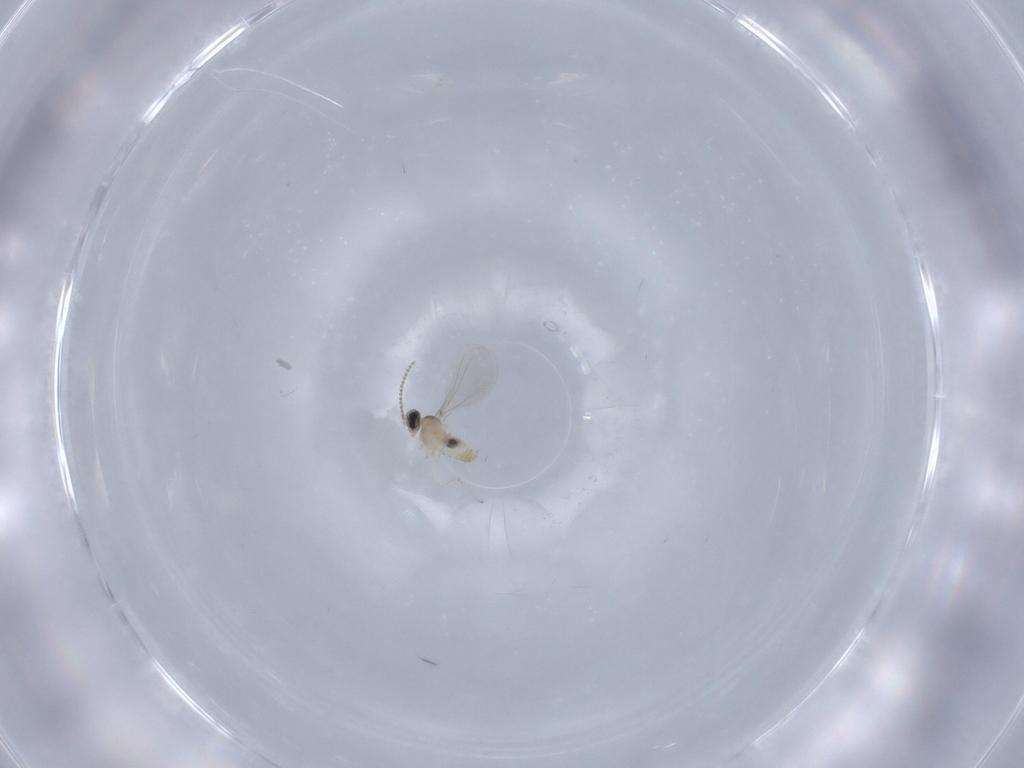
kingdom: Animalia
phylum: Arthropoda
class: Insecta
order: Diptera
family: Cecidomyiidae
